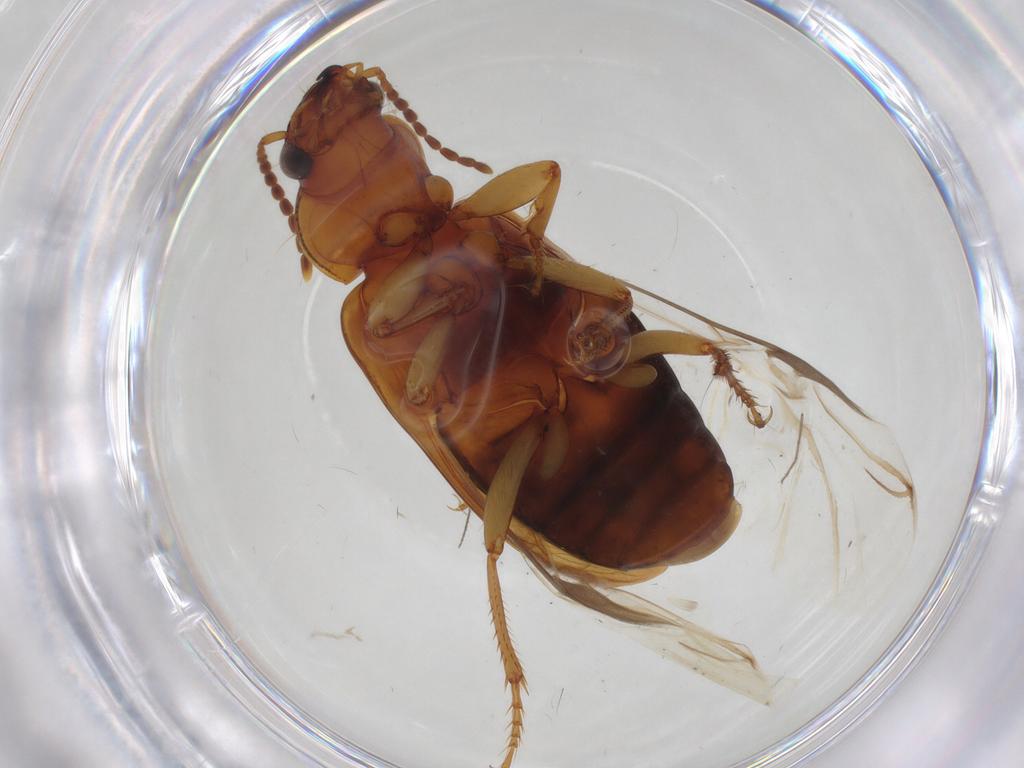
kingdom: Animalia
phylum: Arthropoda
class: Insecta
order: Coleoptera
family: Carabidae
